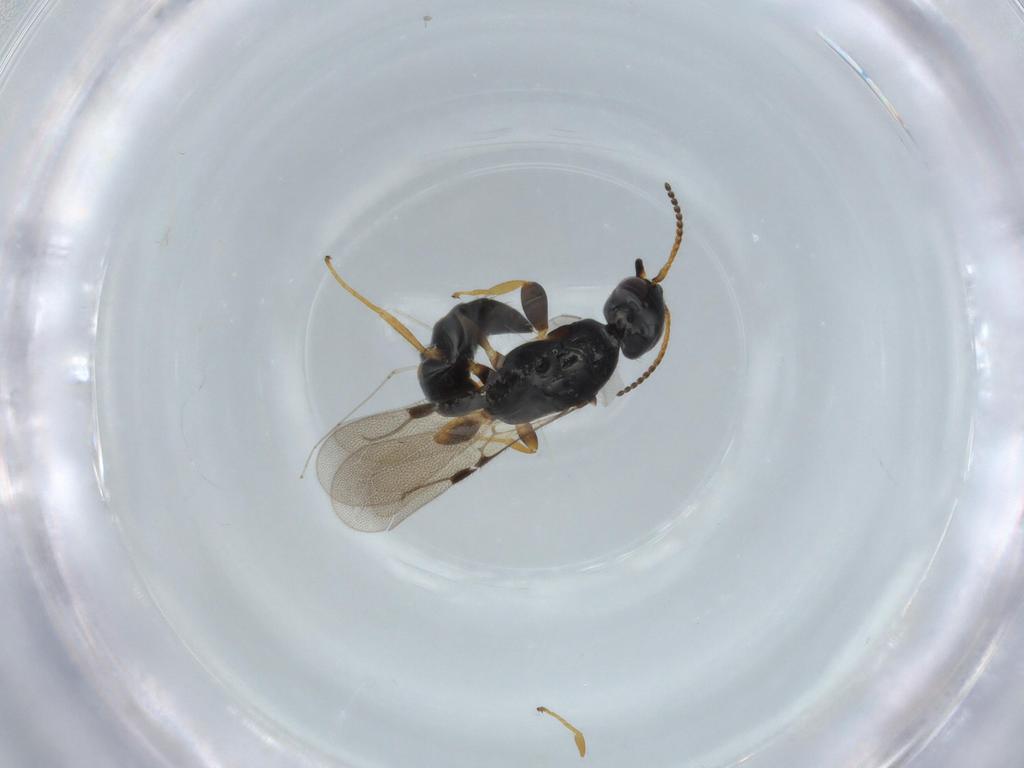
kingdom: Animalia
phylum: Arthropoda
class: Insecta
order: Hymenoptera
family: Bethylidae
